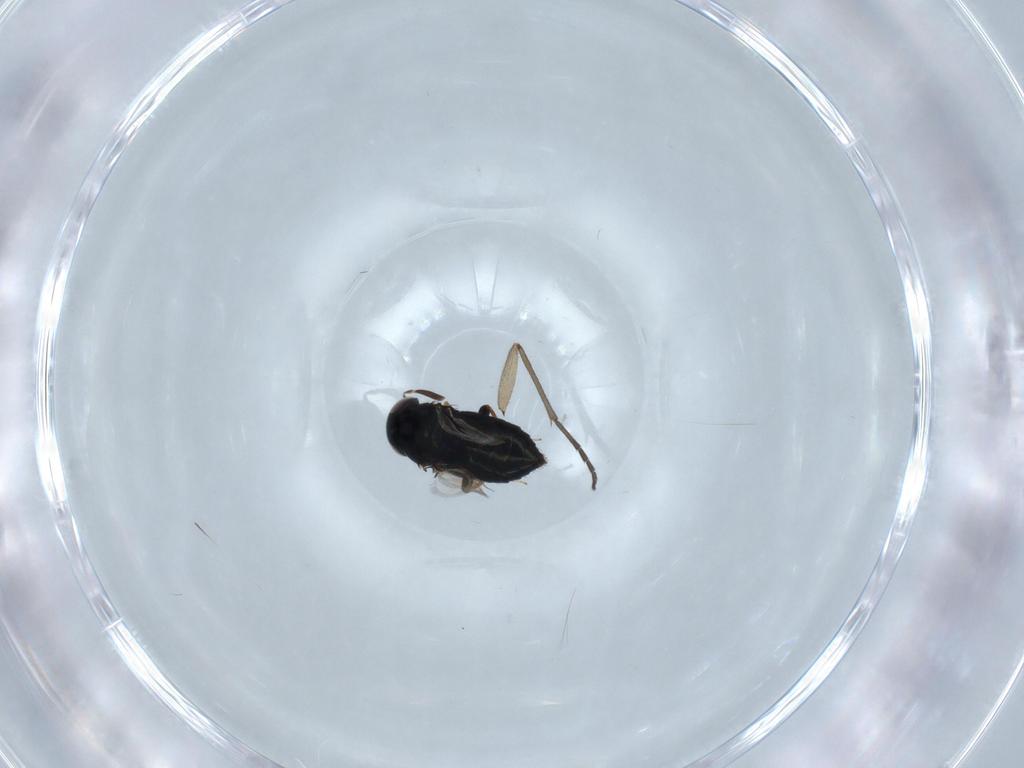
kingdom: Animalia
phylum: Arthropoda
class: Insecta
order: Hymenoptera
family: Signiphoridae
